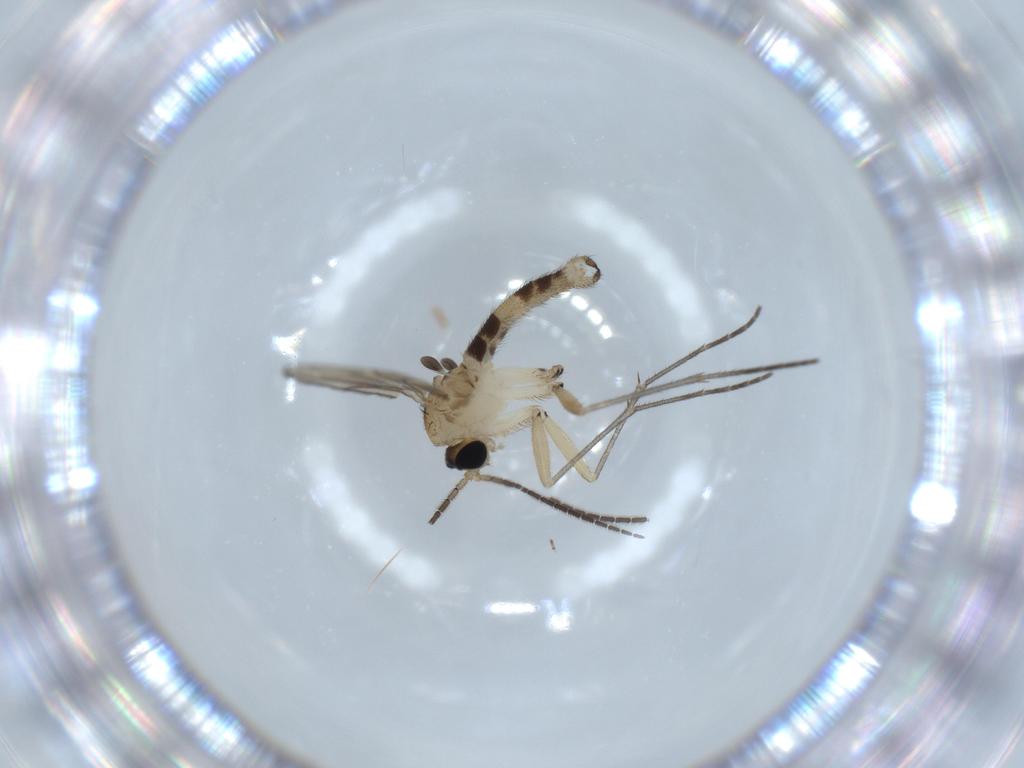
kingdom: Animalia
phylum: Arthropoda
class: Insecta
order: Diptera
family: Sciaridae
